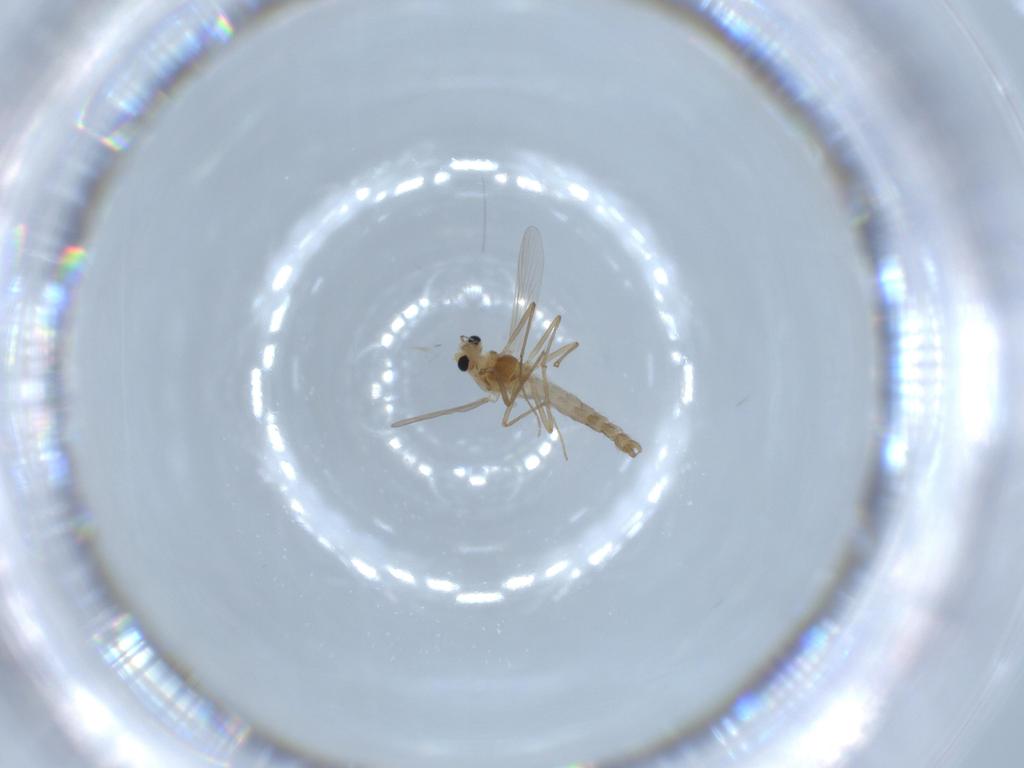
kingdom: Animalia
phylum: Arthropoda
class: Insecta
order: Diptera
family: Chironomidae
